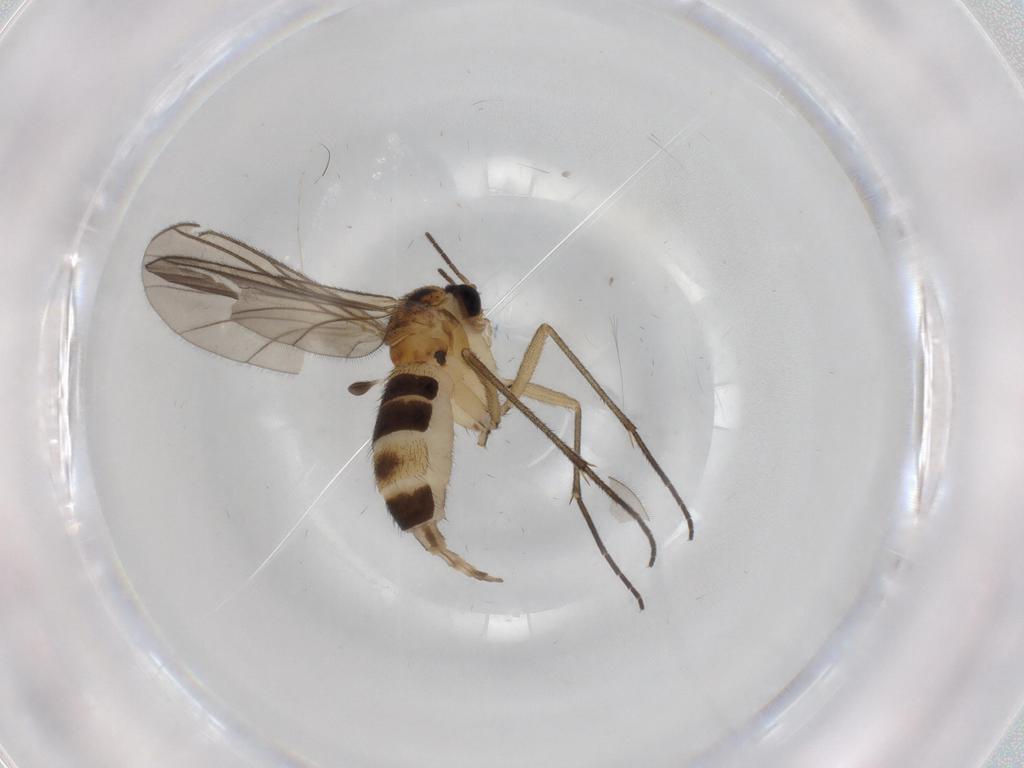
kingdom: Animalia
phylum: Arthropoda
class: Insecta
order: Diptera
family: Sciaridae
